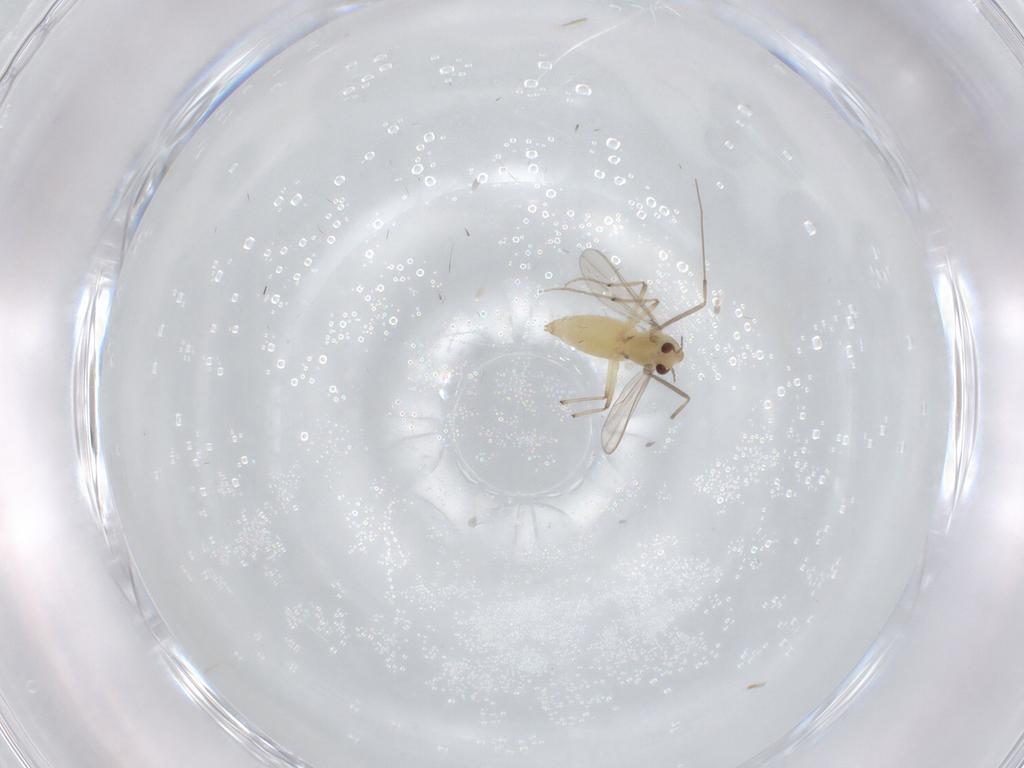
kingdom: Animalia
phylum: Arthropoda
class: Insecta
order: Diptera
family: Chironomidae
